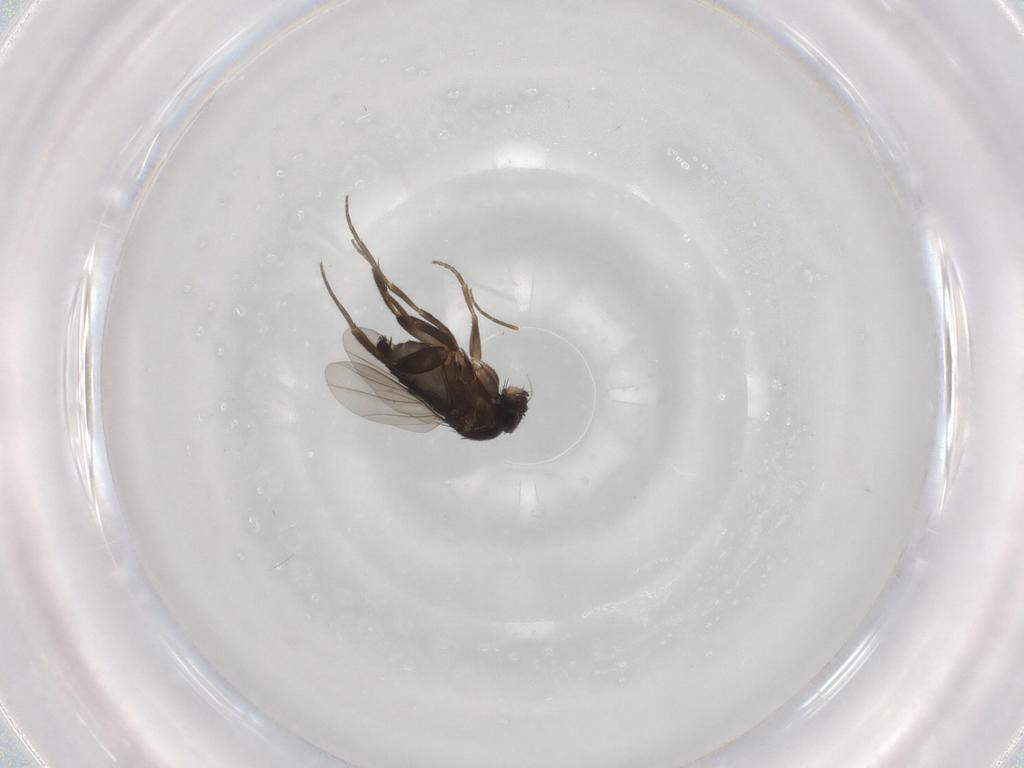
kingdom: Animalia
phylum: Arthropoda
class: Insecta
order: Diptera
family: Phoridae
